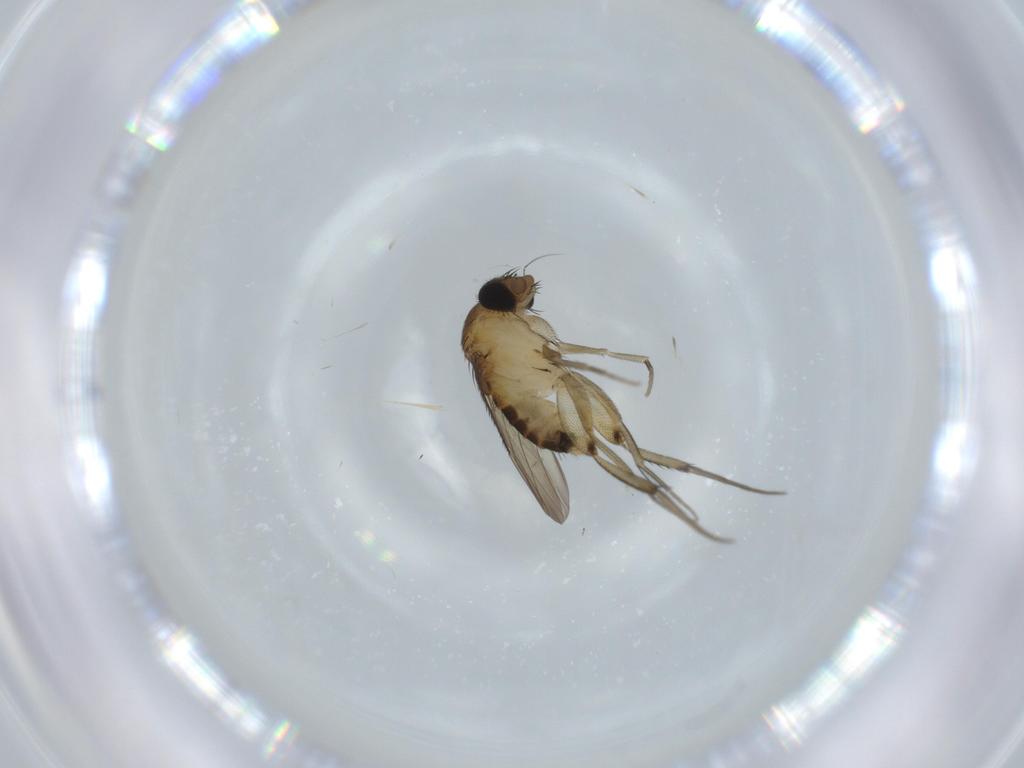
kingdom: Animalia
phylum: Arthropoda
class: Insecta
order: Diptera
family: Phoridae
